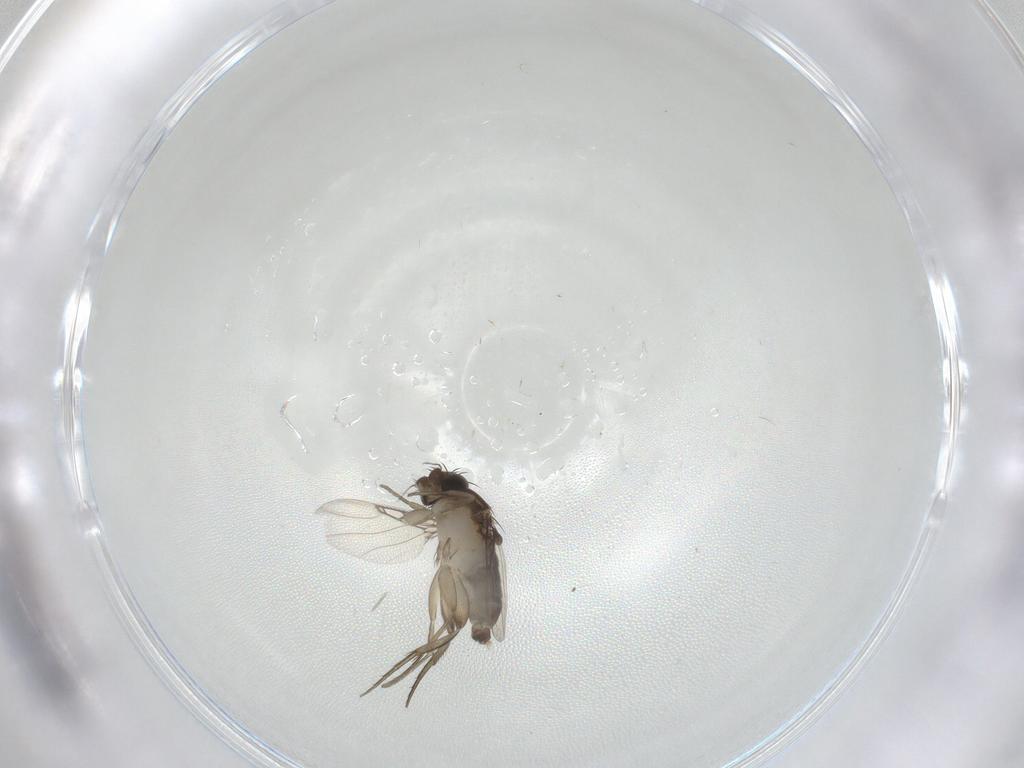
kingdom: Animalia
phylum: Arthropoda
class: Insecta
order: Diptera
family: Phoridae
